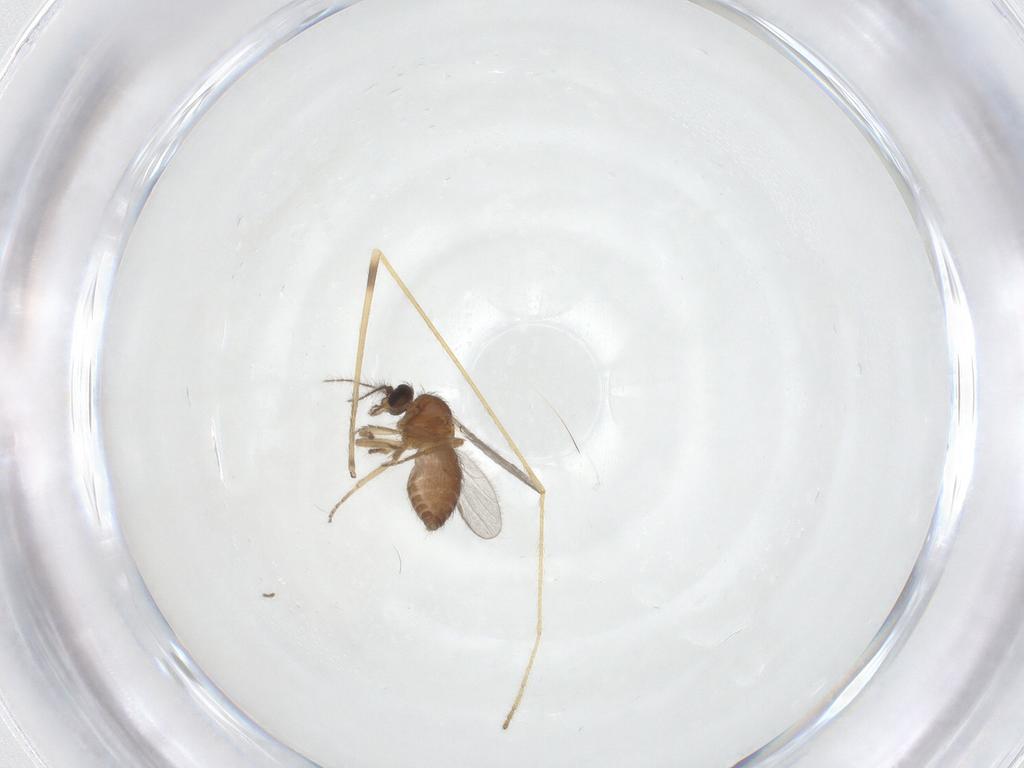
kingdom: Animalia
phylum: Arthropoda
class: Insecta
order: Diptera
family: Ceratopogonidae
